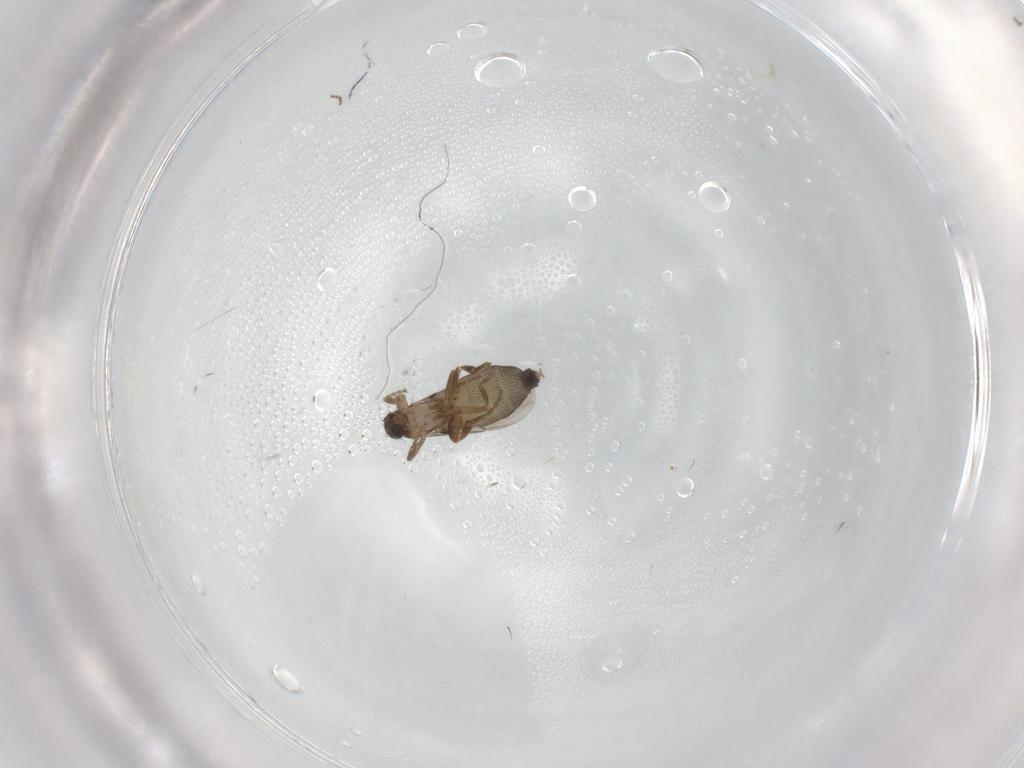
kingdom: Animalia
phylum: Arthropoda
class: Insecta
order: Diptera
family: Phoridae
